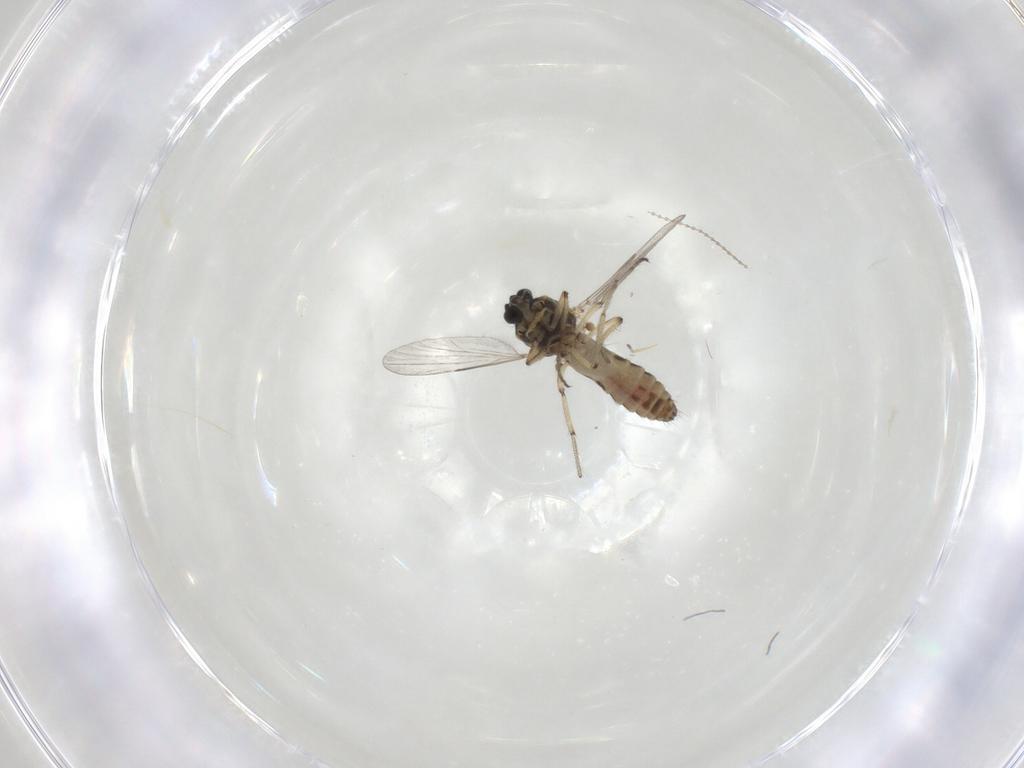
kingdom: Animalia
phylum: Arthropoda
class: Insecta
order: Diptera
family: Ceratopogonidae
